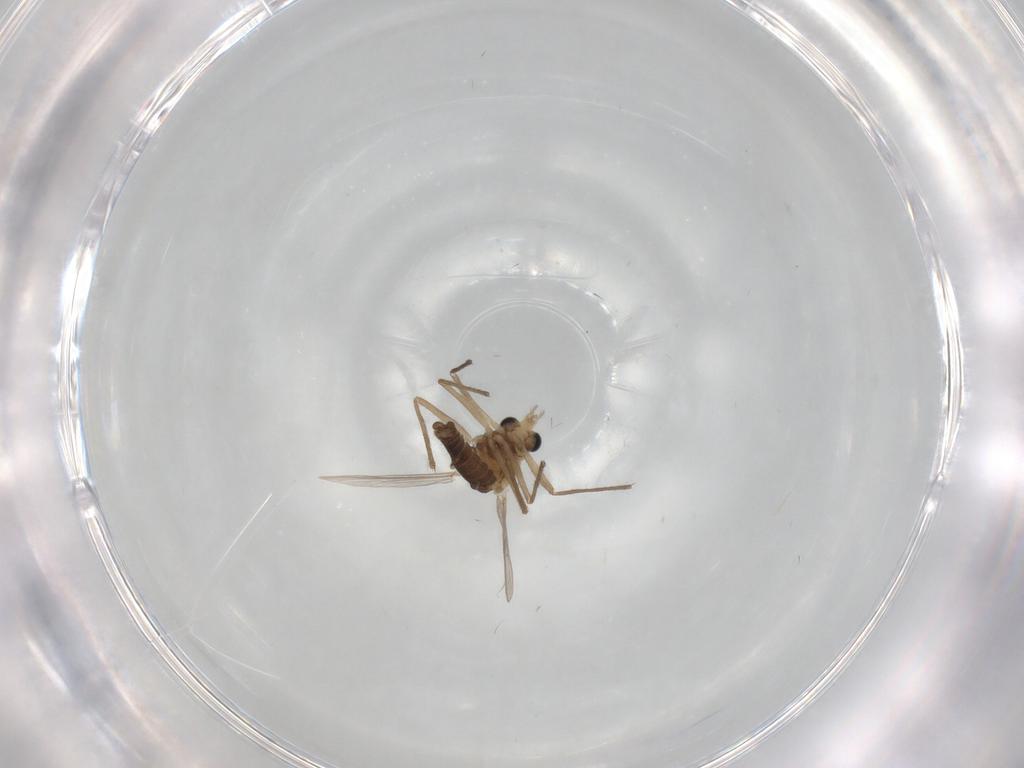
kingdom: Animalia
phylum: Arthropoda
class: Insecta
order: Diptera
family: Chironomidae
